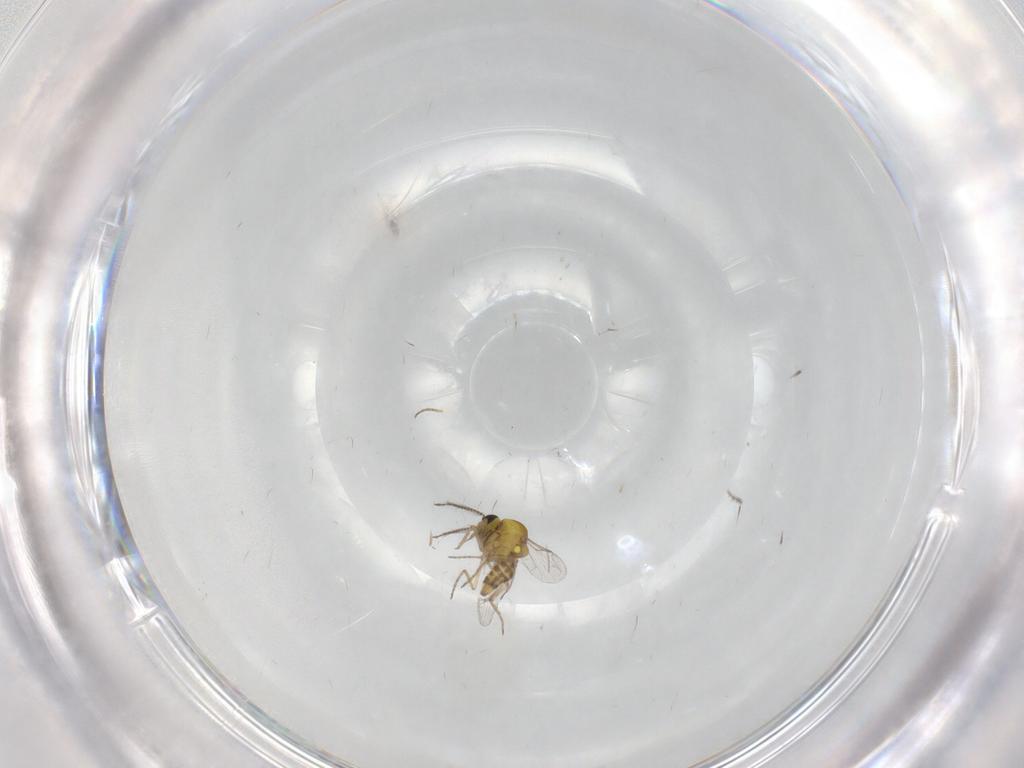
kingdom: Animalia
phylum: Arthropoda
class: Insecta
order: Diptera
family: Ceratopogonidae
